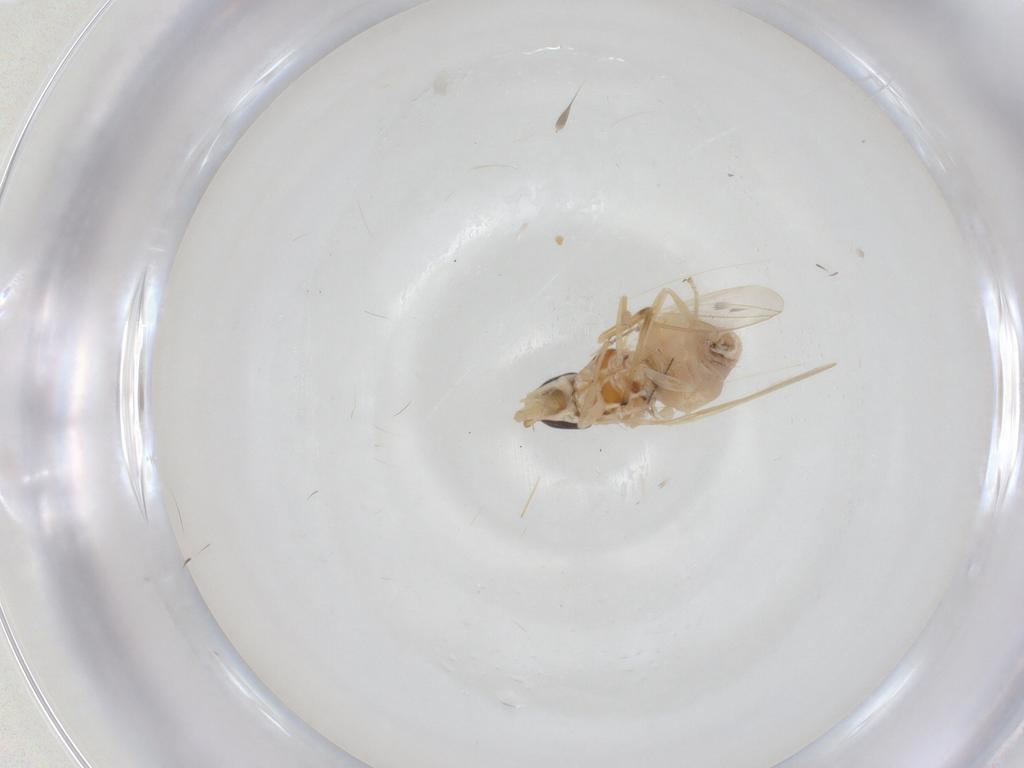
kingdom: Animalia
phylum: Arthropoda
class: Insecta
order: Diptera
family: Chloropidae
